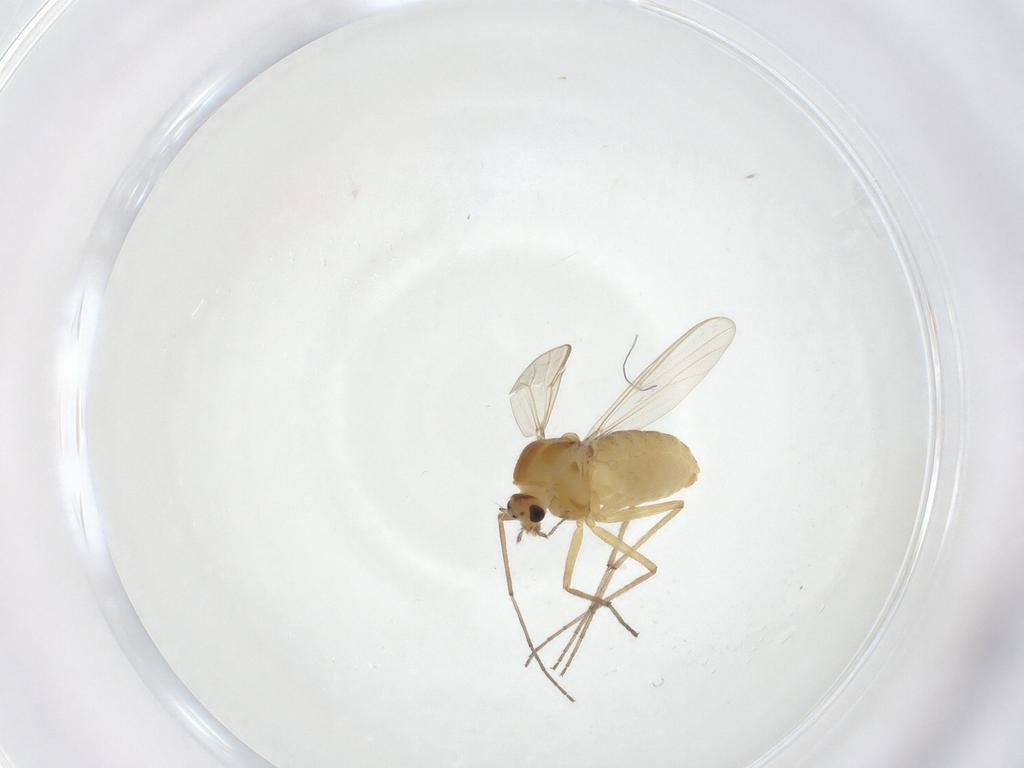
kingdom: Animalia
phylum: Arthropoda
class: Insecta
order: Diptera
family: Chironomidae
